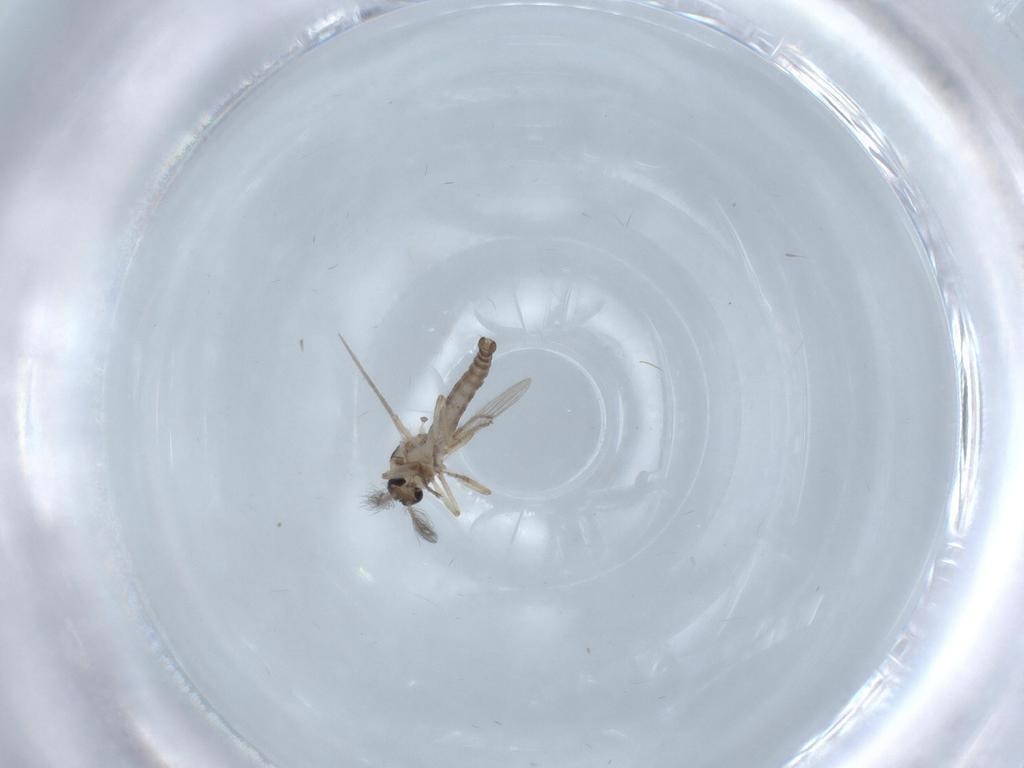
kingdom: Animalia
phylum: Arthropoda
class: Insecta
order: Diptera
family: Ceratopogonidae
